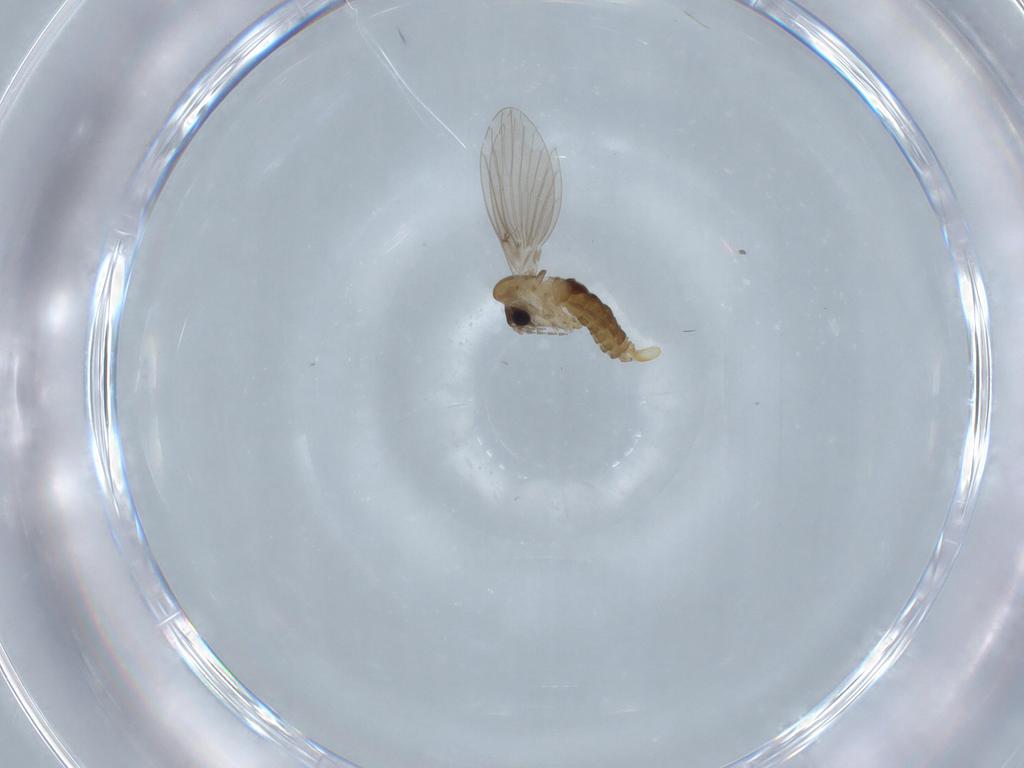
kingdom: Animalia
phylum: Arthropoda
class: Insecta
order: Diptera
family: Sciaridae
